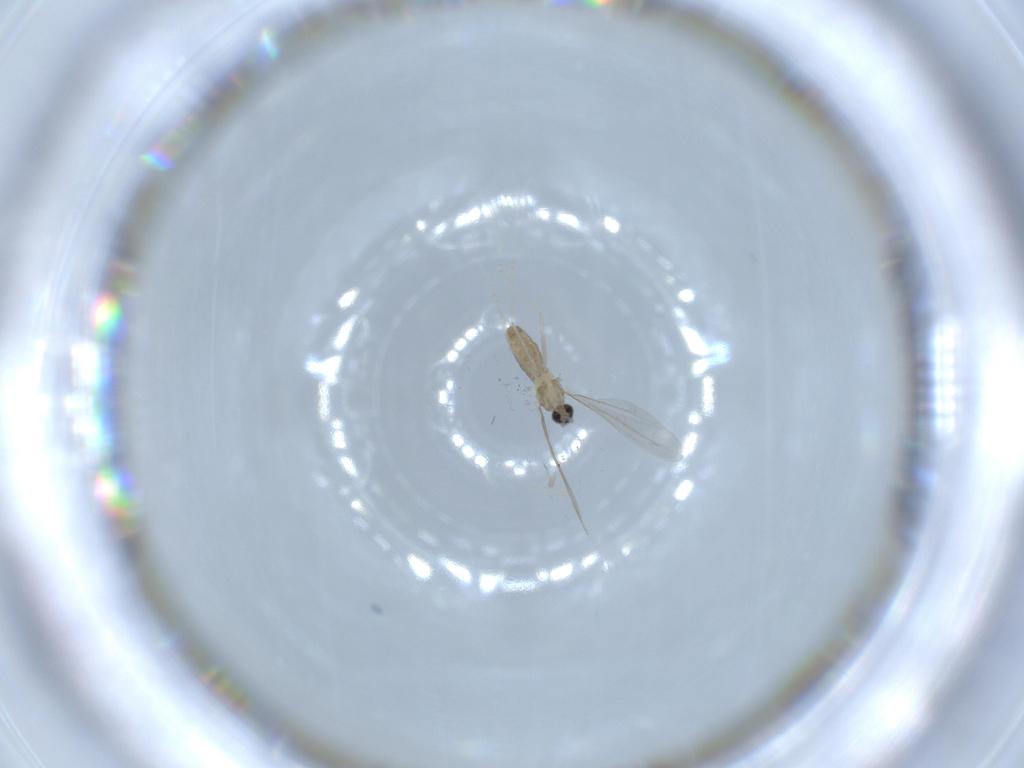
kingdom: Animalia
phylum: Arthropoda
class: Insecta
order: Diptera
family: Cecidomyiidae
